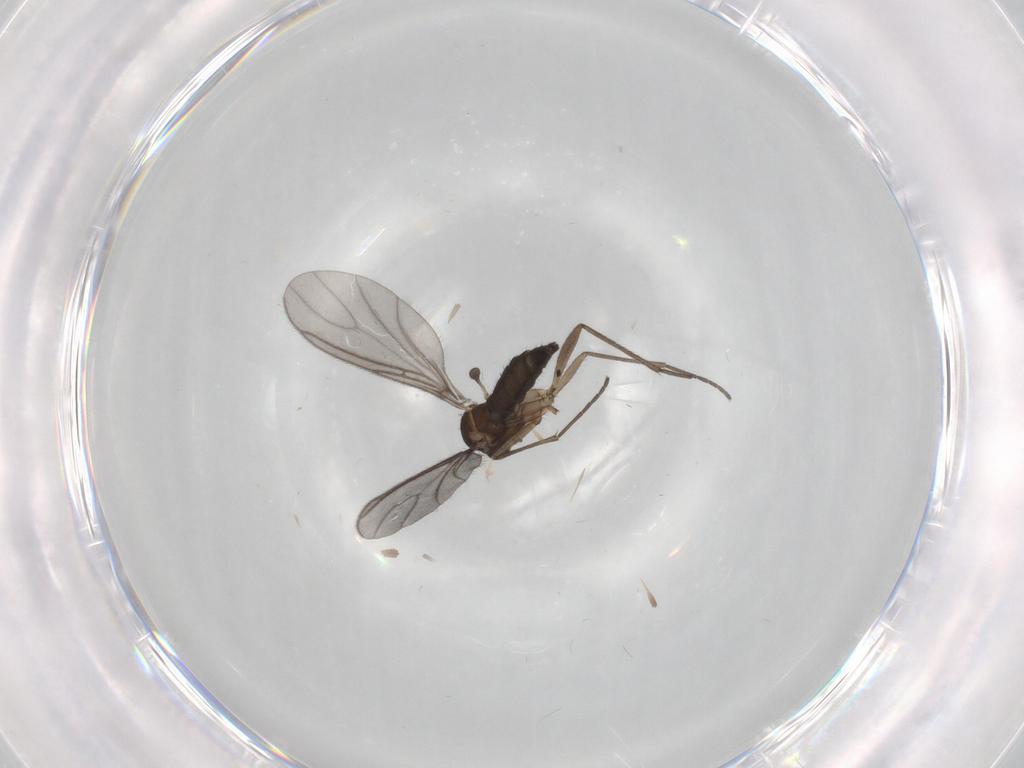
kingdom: Animalia
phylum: Arthropoda
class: Insecta
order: Diptera
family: Sciaridae
